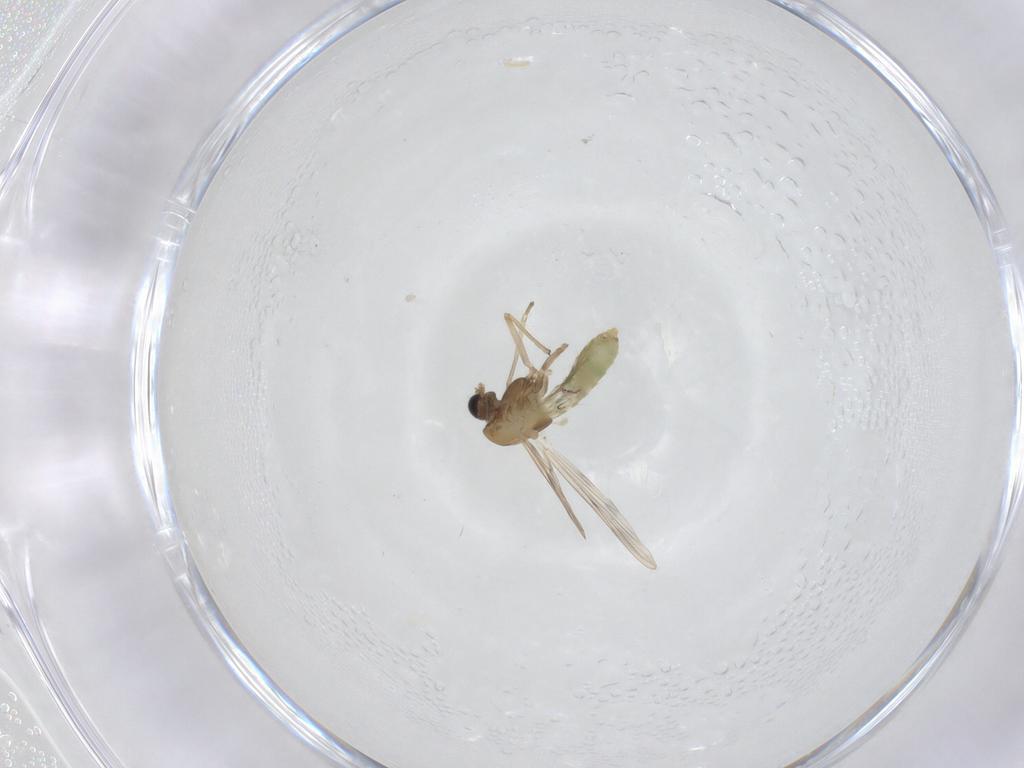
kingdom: Animalia
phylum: Arthropoda
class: Insecta
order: Diptera
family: Chironomidae
